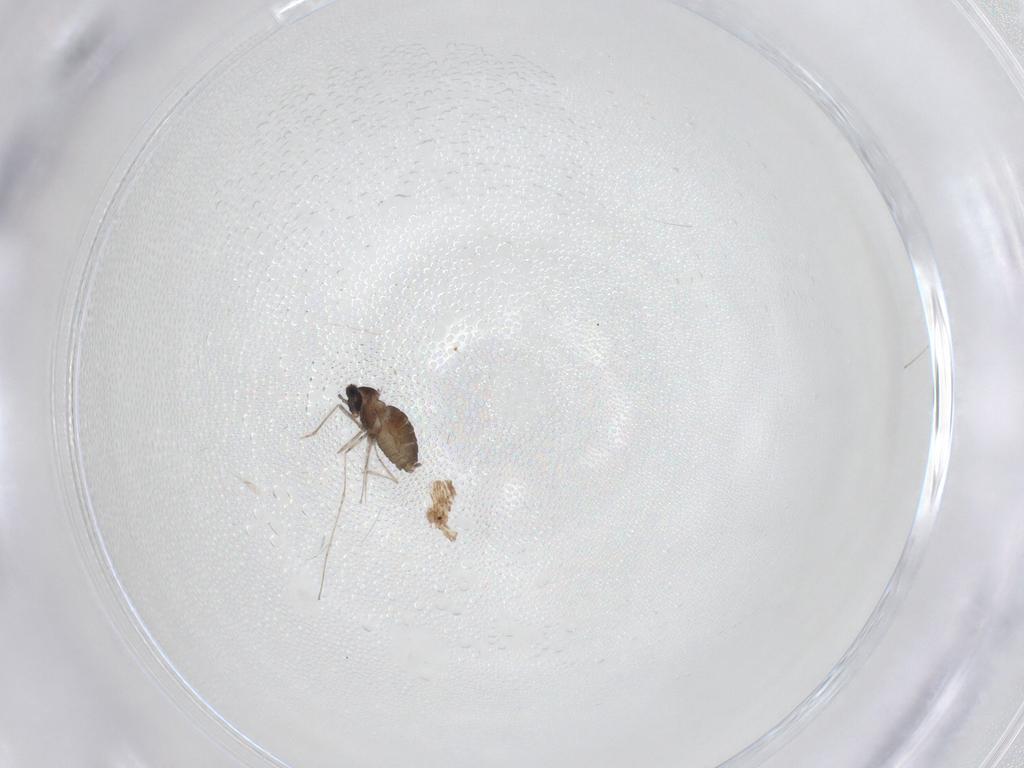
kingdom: Animalia
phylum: Arthropoda
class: Insecta
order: Diptera
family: Cecidomyiidae
